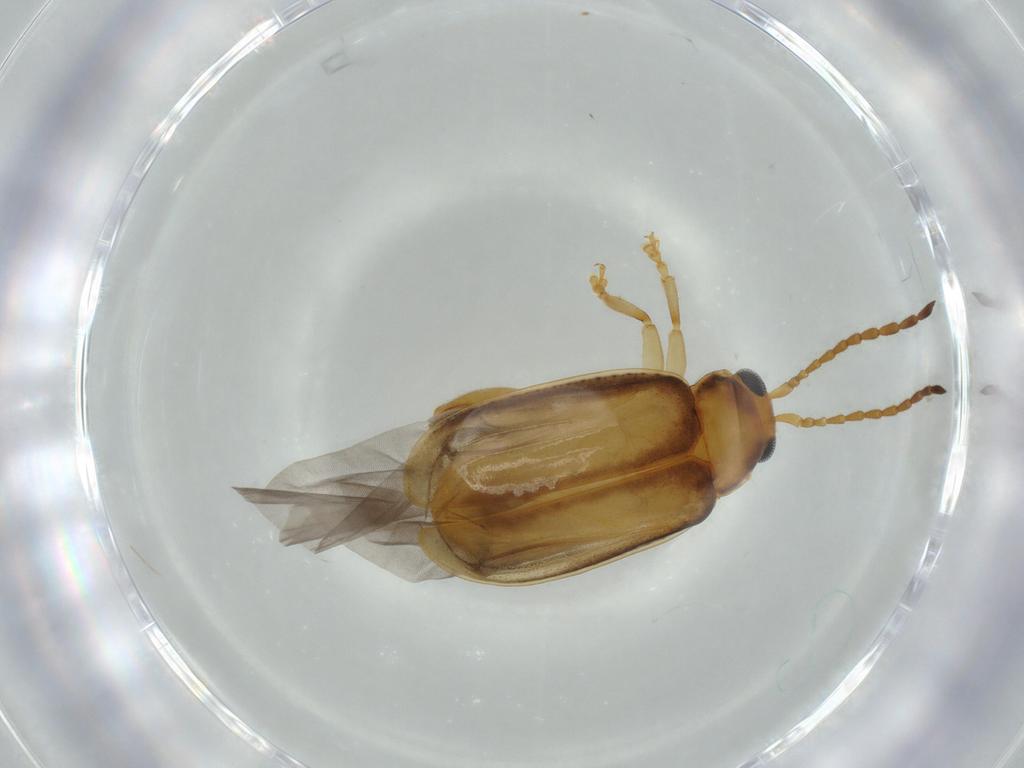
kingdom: Animalia
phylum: Arthropoda
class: Insecta
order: Coleoptera
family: Chrysomelidae
